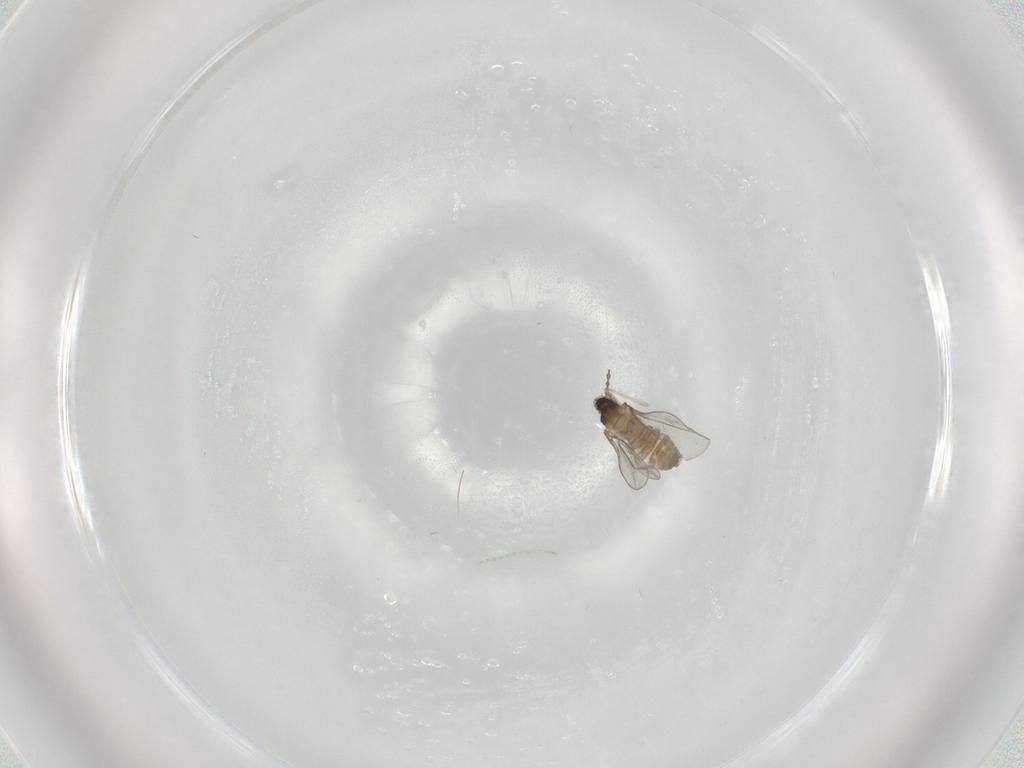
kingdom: Animalia
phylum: Arthropoda
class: Insecta
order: Diptera
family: Cecidomyiidae
